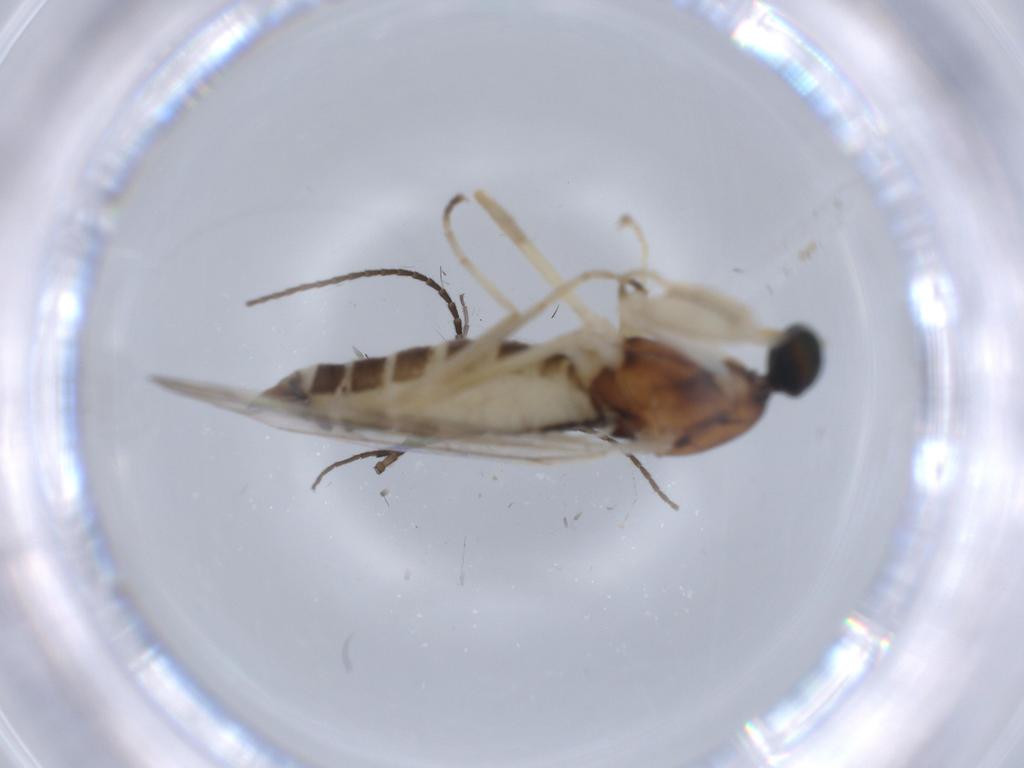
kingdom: Animalia
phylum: Arthropoda
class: Insecta
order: Diptera
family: Empididae
